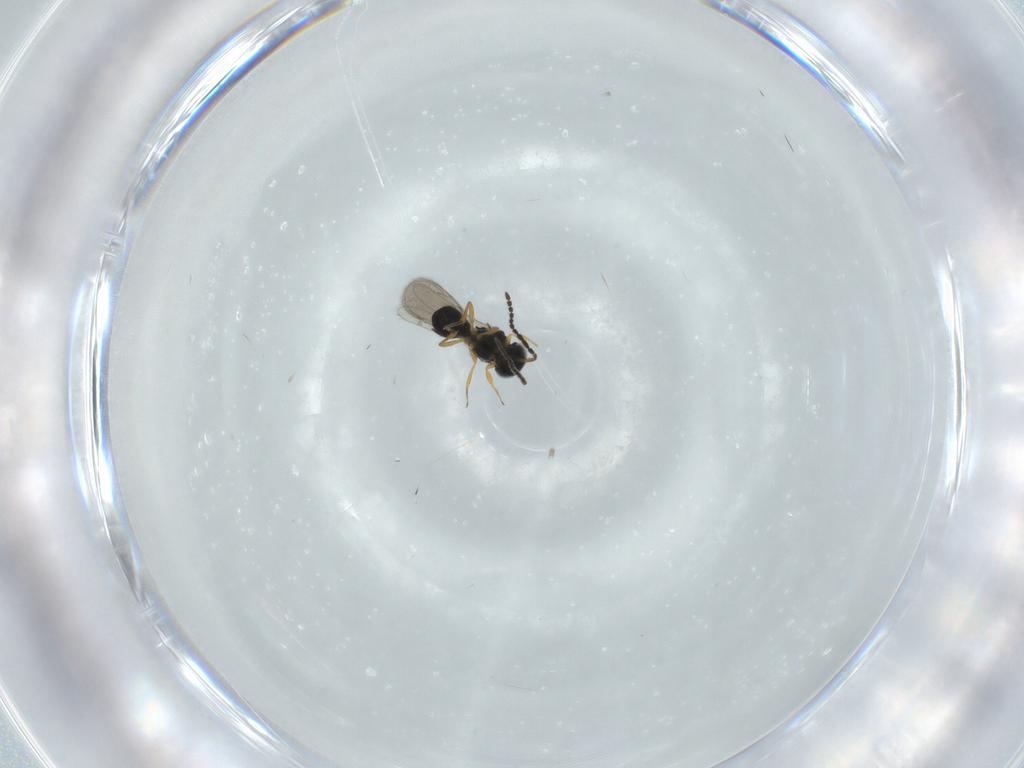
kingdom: Animalia
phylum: Arthropoda
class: Insecta
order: Hymenoptera
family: Scelionidae
